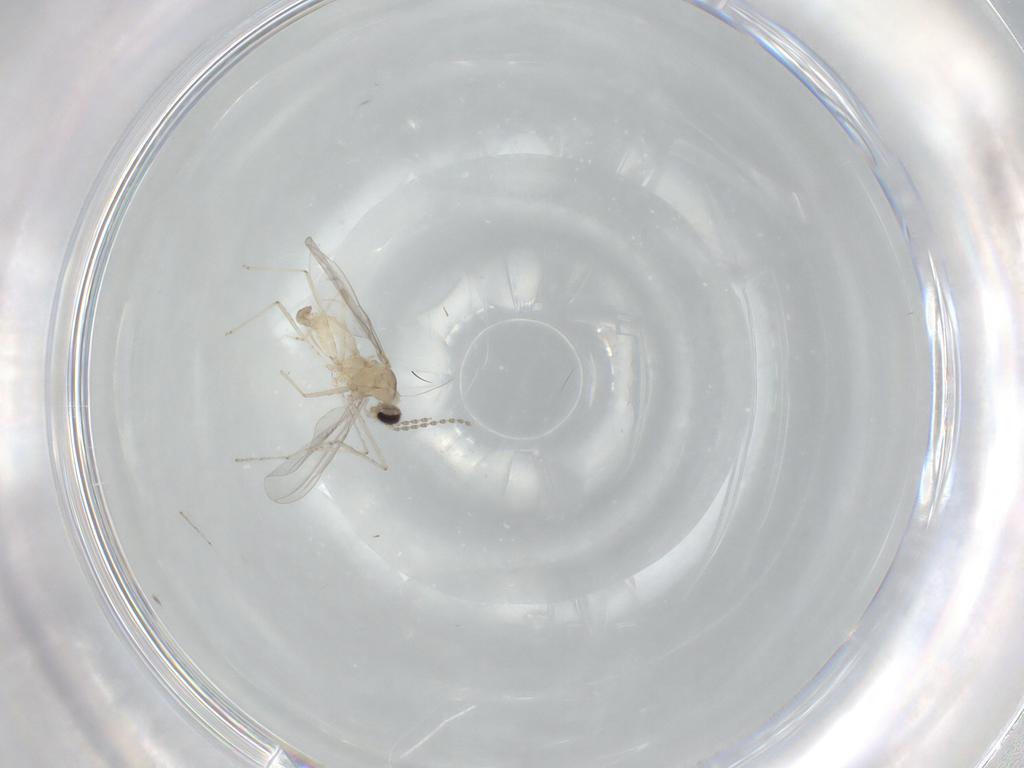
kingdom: Animalia
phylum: Arthropoda
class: Insecta
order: Diptera
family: Cecidomyiidae
